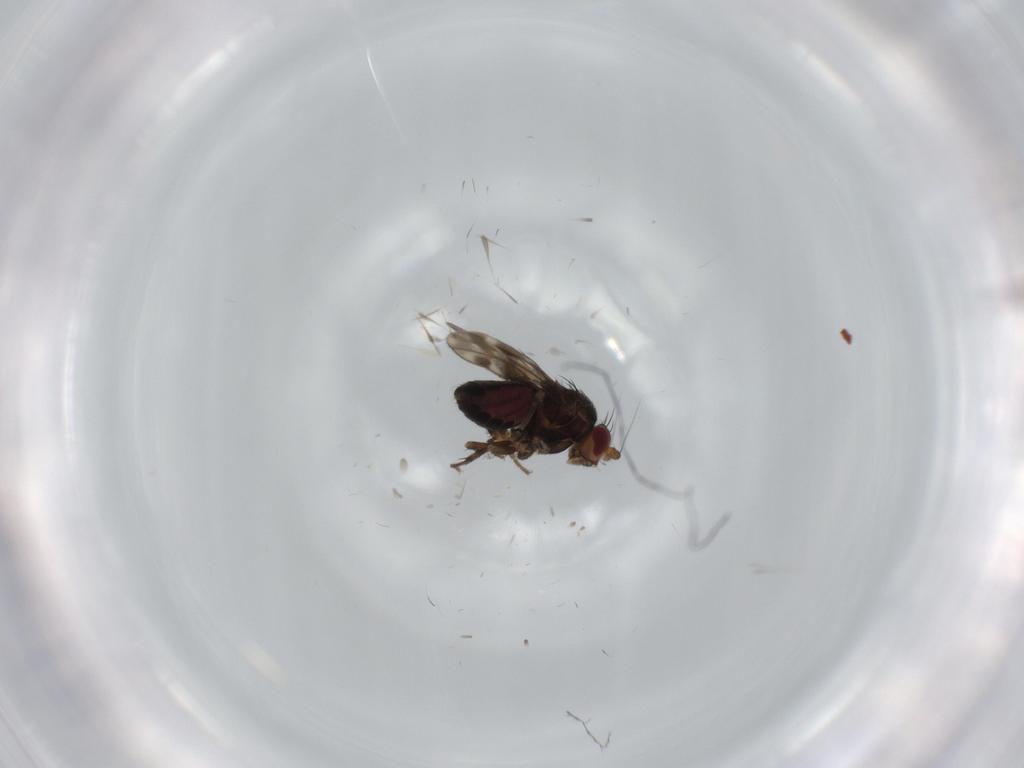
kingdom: Animalia
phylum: Arthropoda
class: Insecta
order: Diptera
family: Sphaeroceridae
